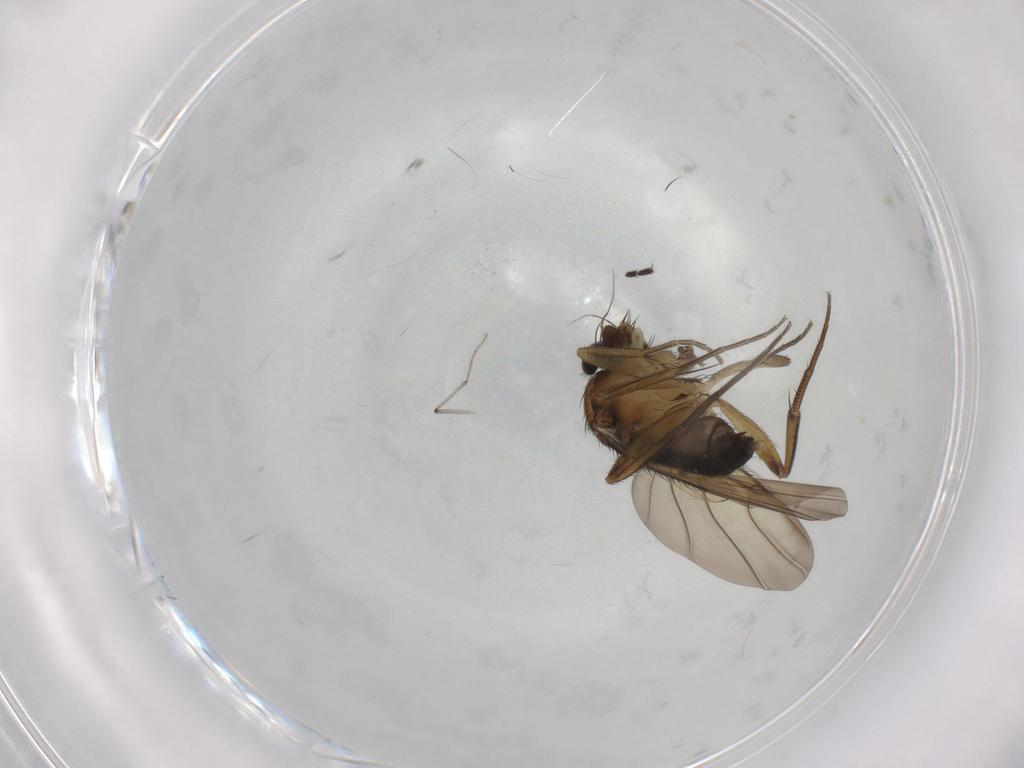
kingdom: Animalia
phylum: Arthropoda
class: Insecta
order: Diptera
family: Phoridae
